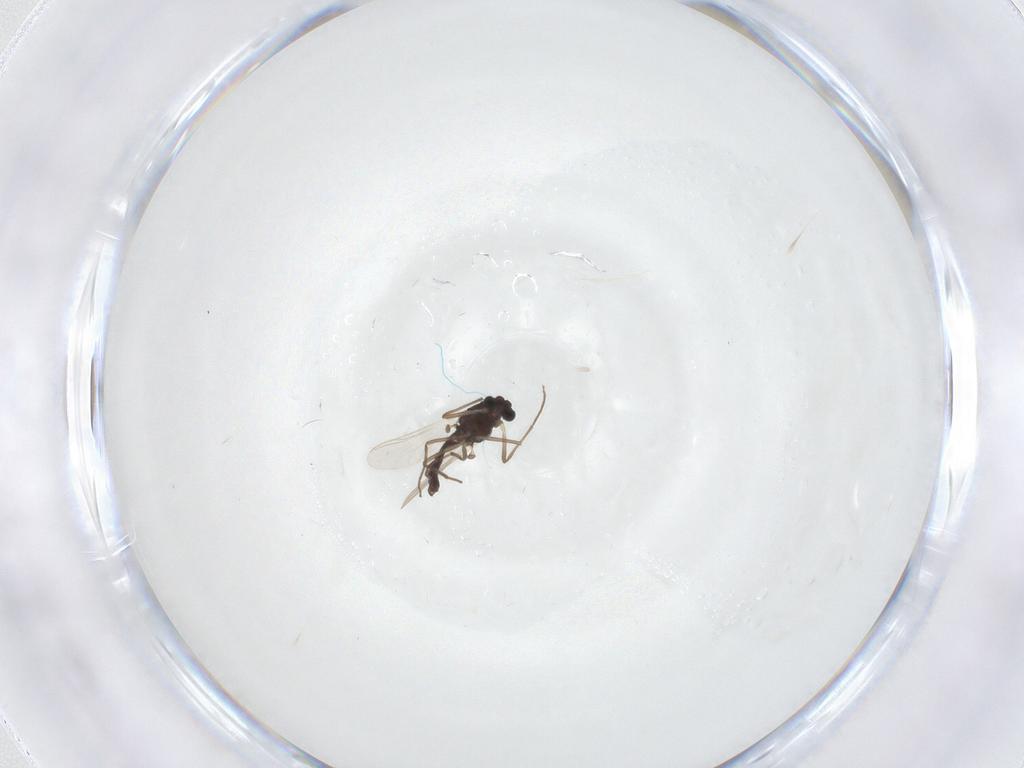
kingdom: Animalia
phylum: Arthropoda
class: Insecta
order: Diptera
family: Chironomidae
